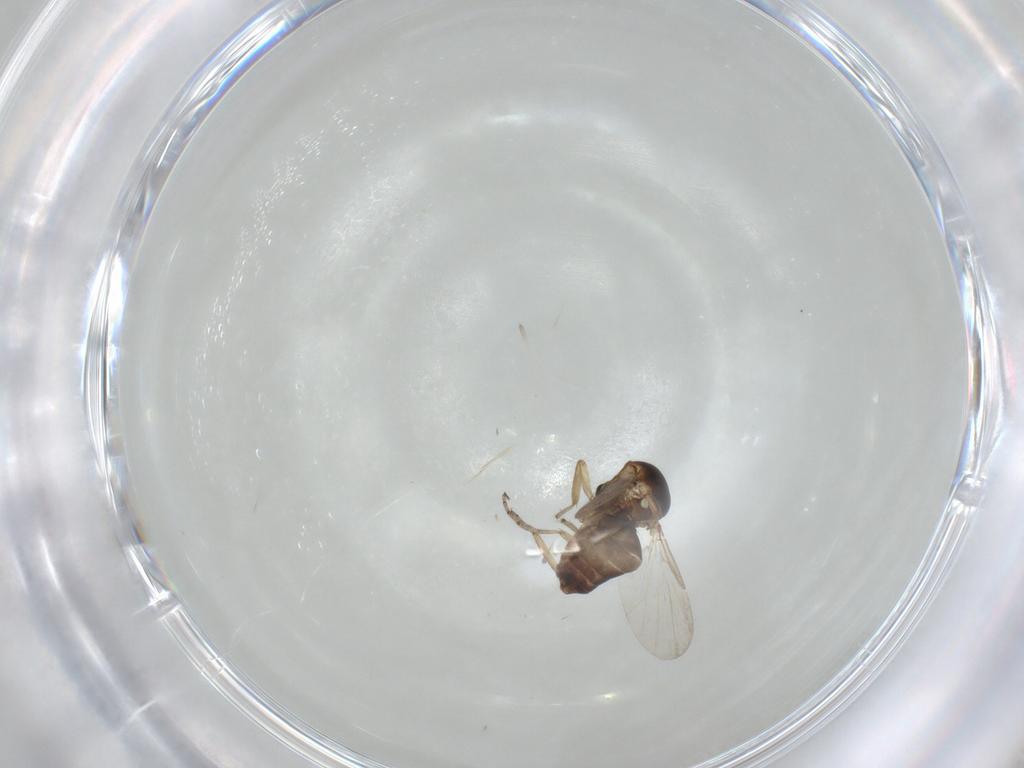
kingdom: Animalia
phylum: Arthropoda
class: Insecta
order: Diptera
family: Ceratopogonidae
